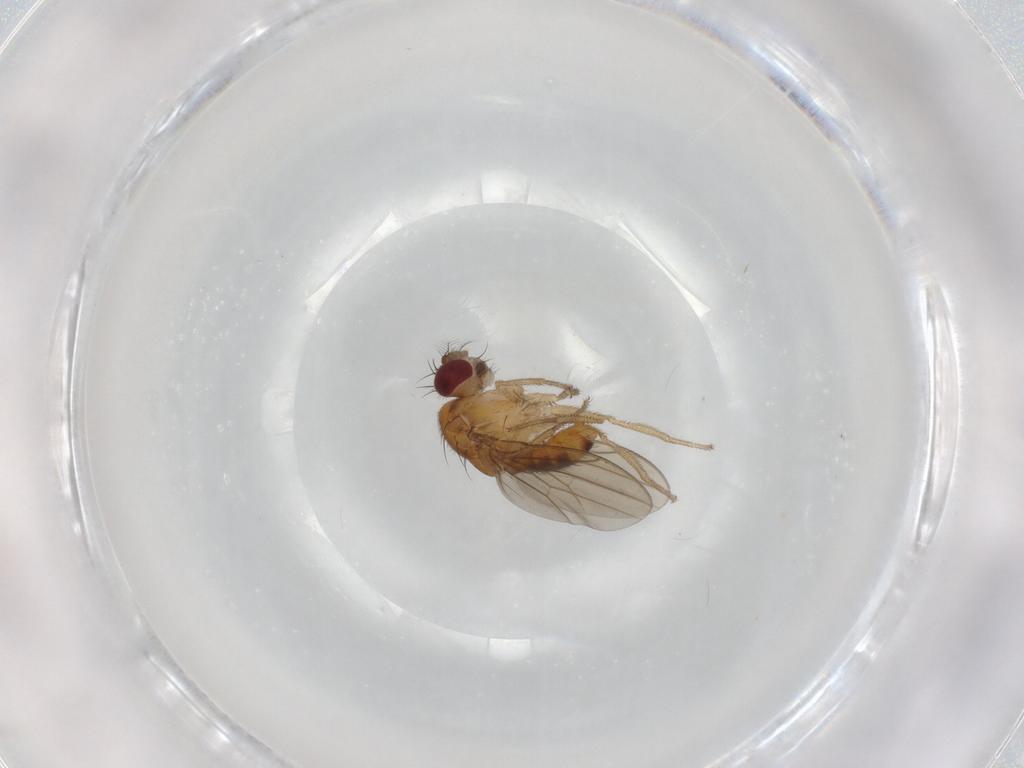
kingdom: Animalia
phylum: Arthropoda
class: Insecta
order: Diptera
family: Drosophilidae
